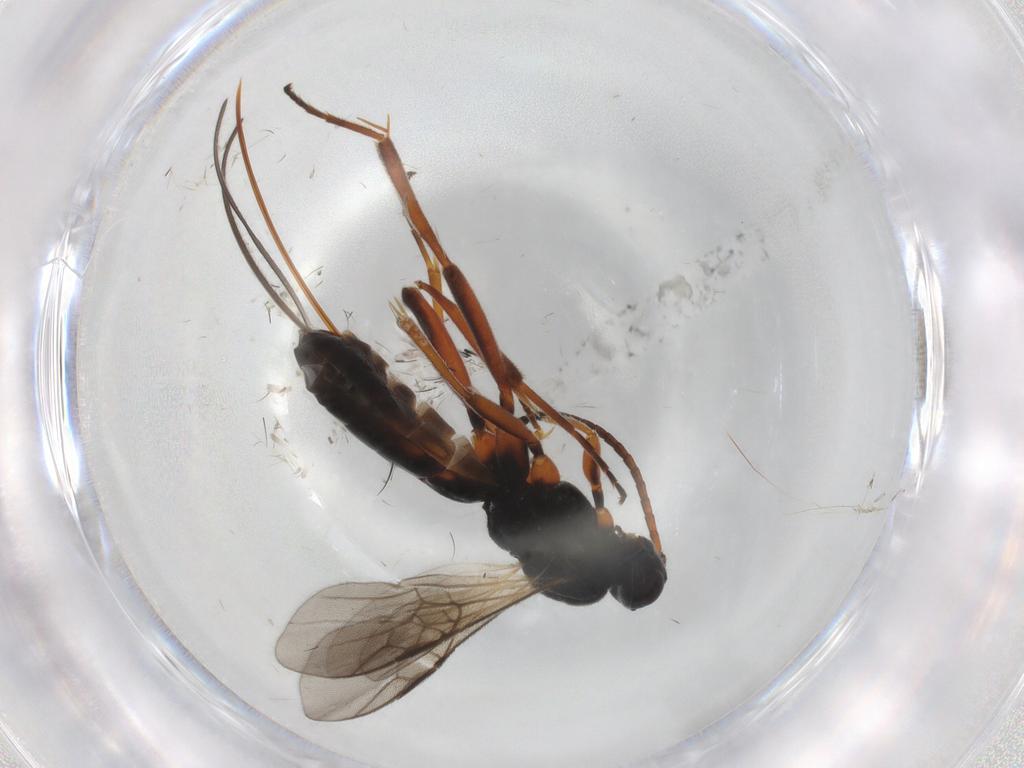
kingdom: Animalia
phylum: Arthropoda
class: Insecta
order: Hymenoptera
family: Braconidae
